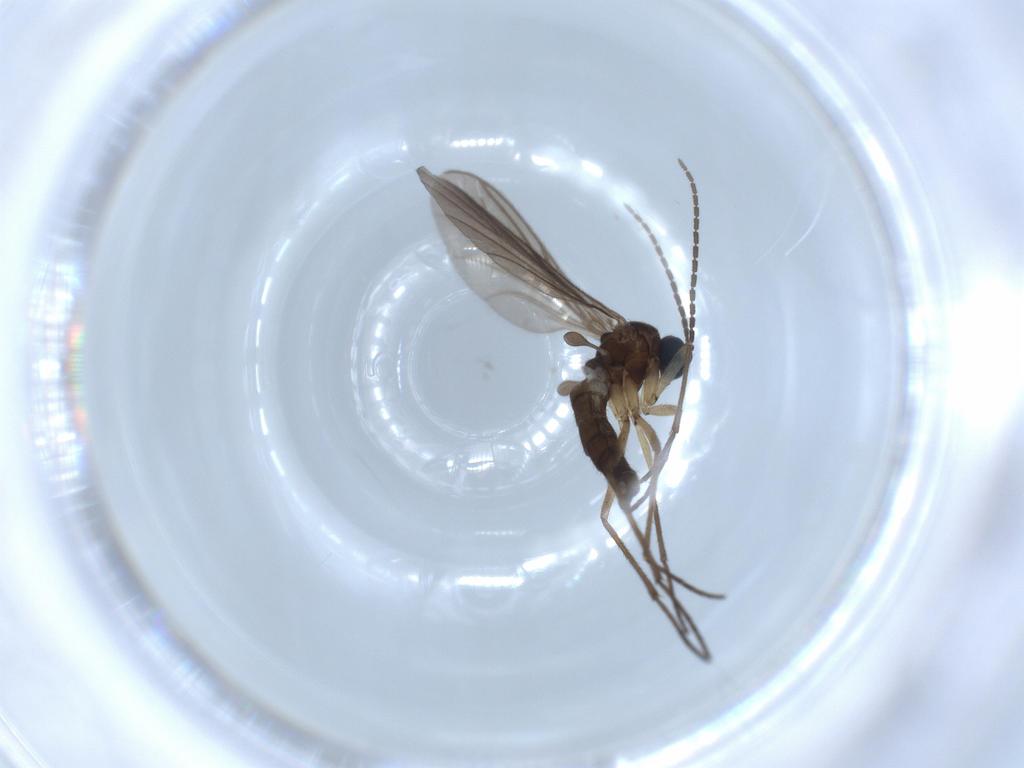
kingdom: Animalia
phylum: Arthropoda
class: Insecta
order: Diptera
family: Sciaridae
